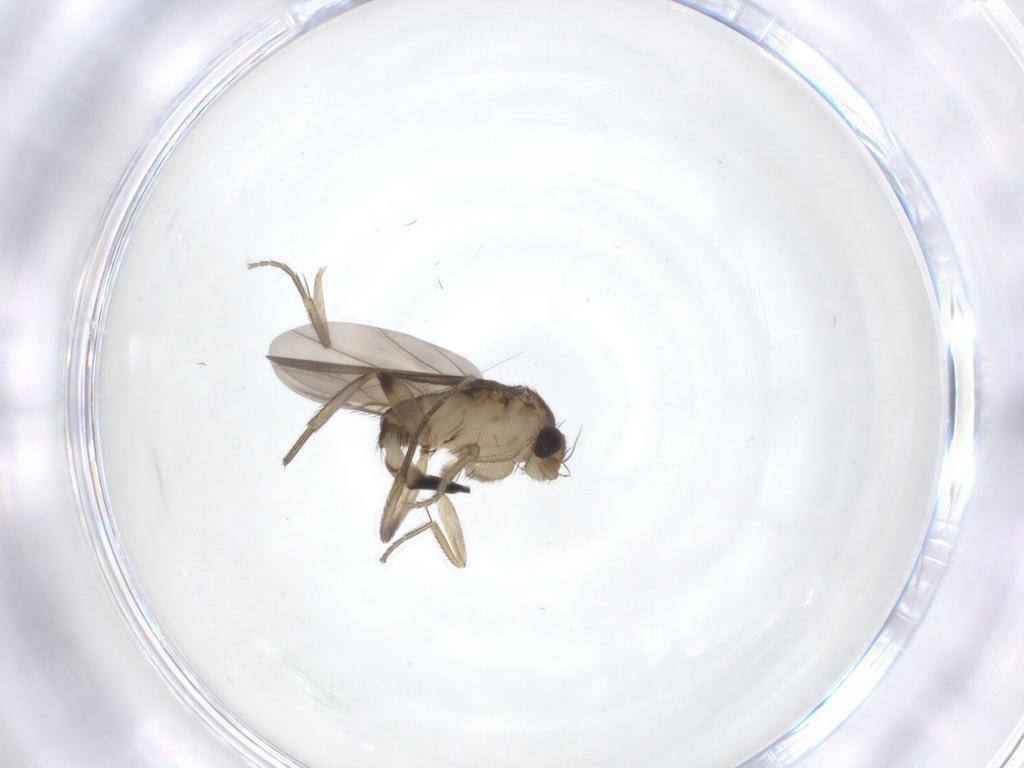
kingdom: Animalia
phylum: Arthropoda
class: Insecta
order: Diptera
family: Phoridae
